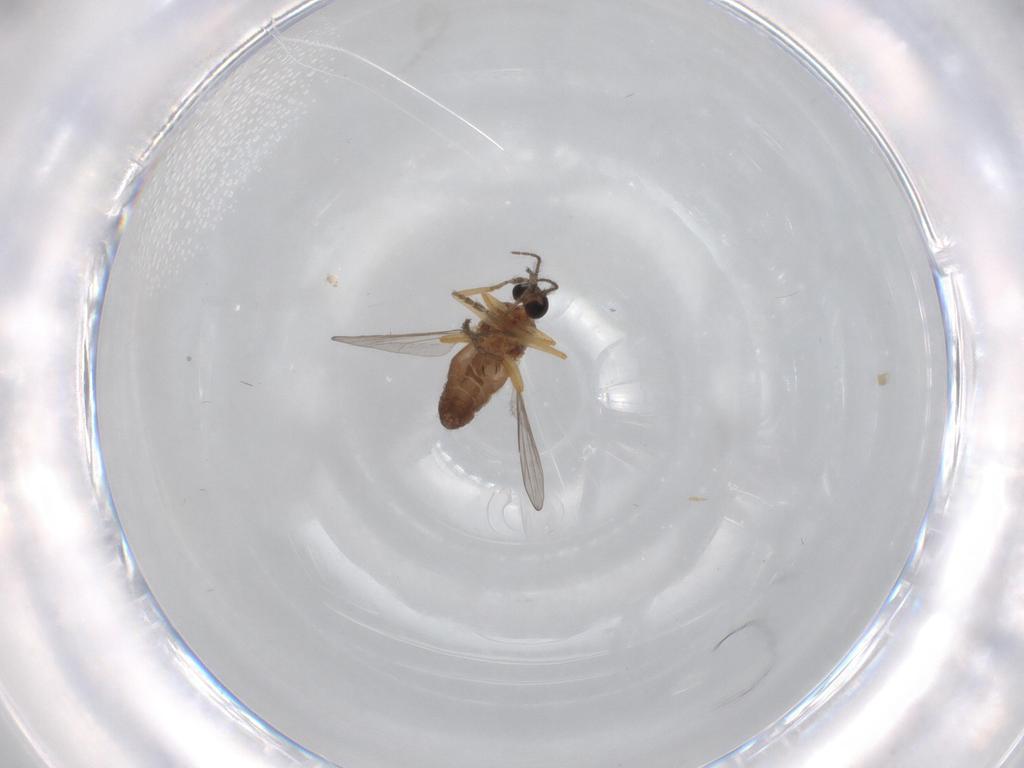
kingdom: Animalia
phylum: Arthropoda
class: Insecta
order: Diptera
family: Ceratopogonidae
